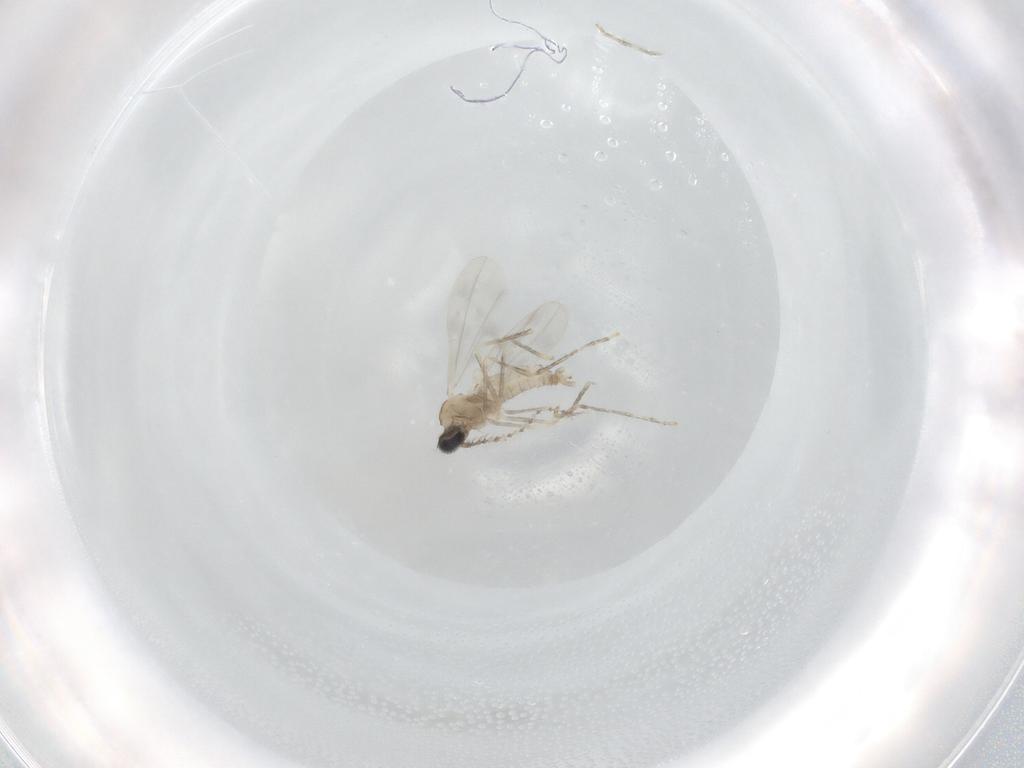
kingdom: Animalia
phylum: Arthropoda
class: Insecta
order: Diptera
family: Cecidomyiidae
